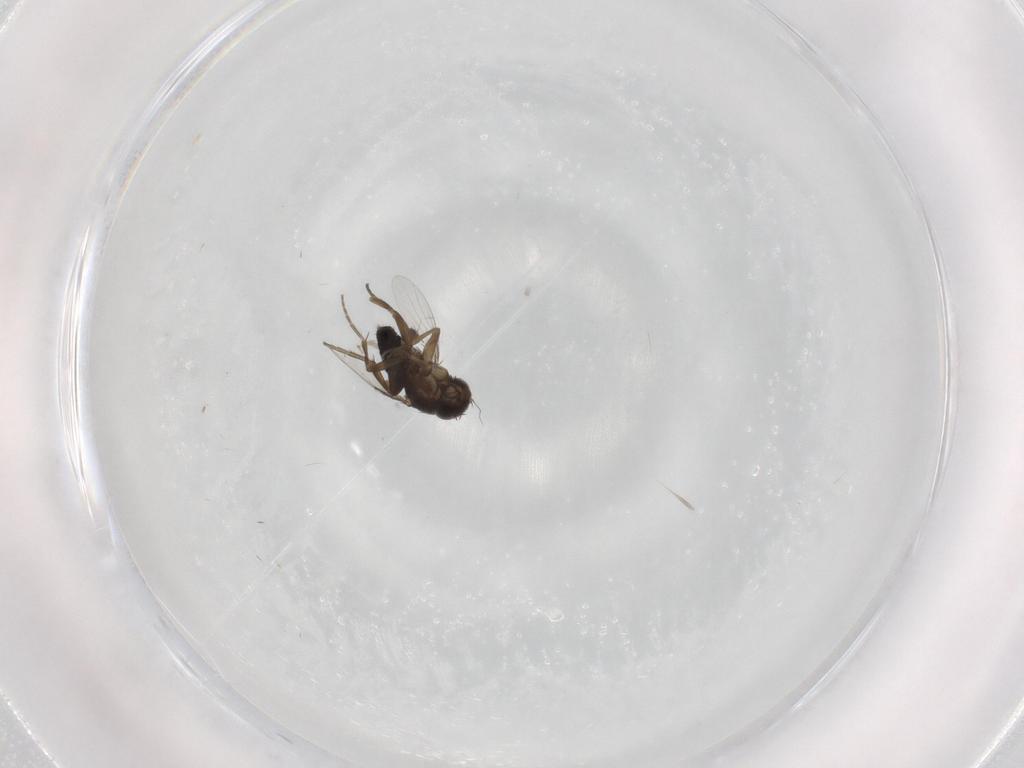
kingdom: Animalia
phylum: Arthropoda
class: Insecta
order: Diptera
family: Phoridae
